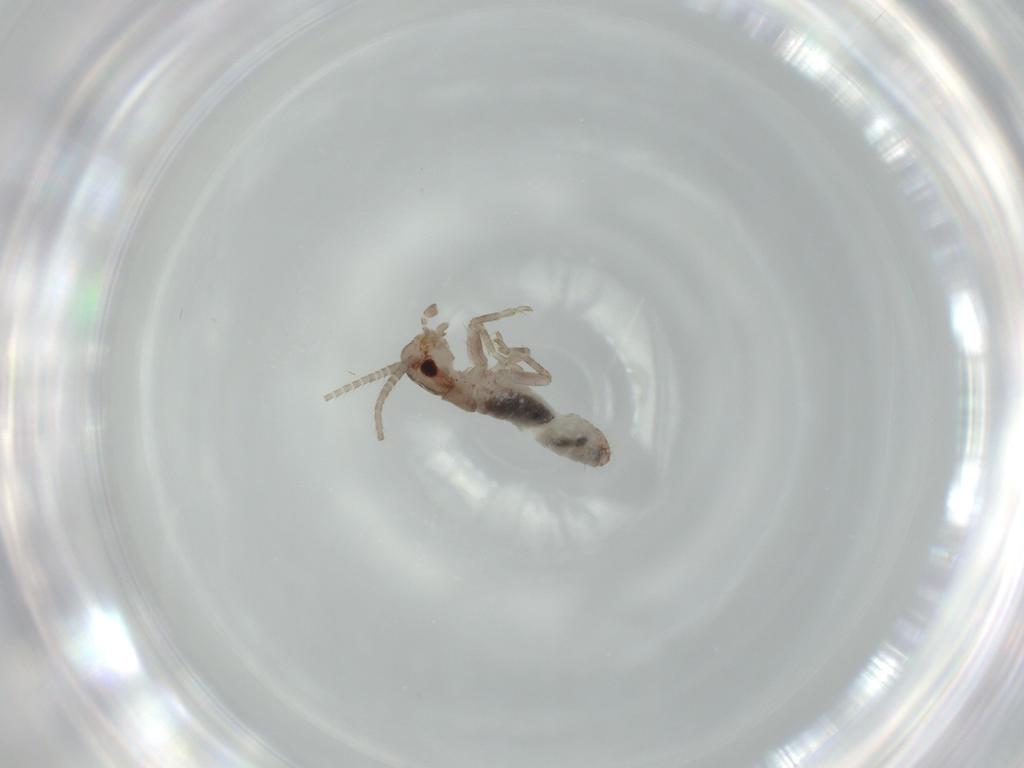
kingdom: Animalia
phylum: Arthropoda
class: Insecta
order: Orthoptera
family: Mogoplistidae
